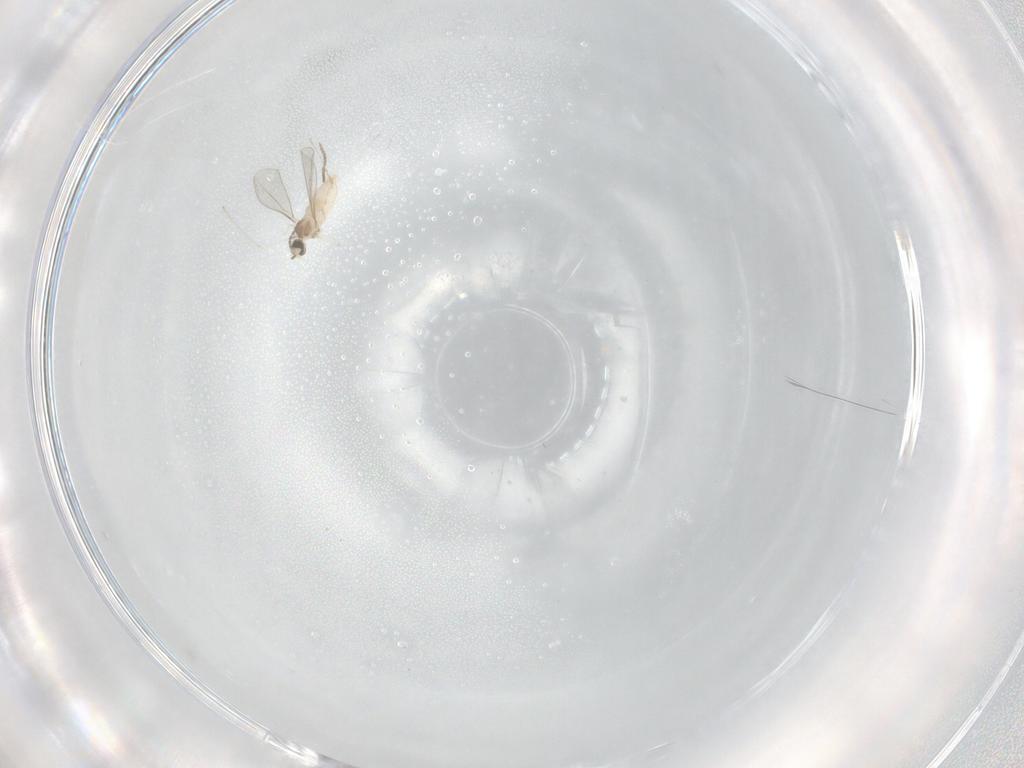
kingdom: Animalia
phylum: Arthropoda
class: Insecta
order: Diptera
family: Cecidomyiidae
